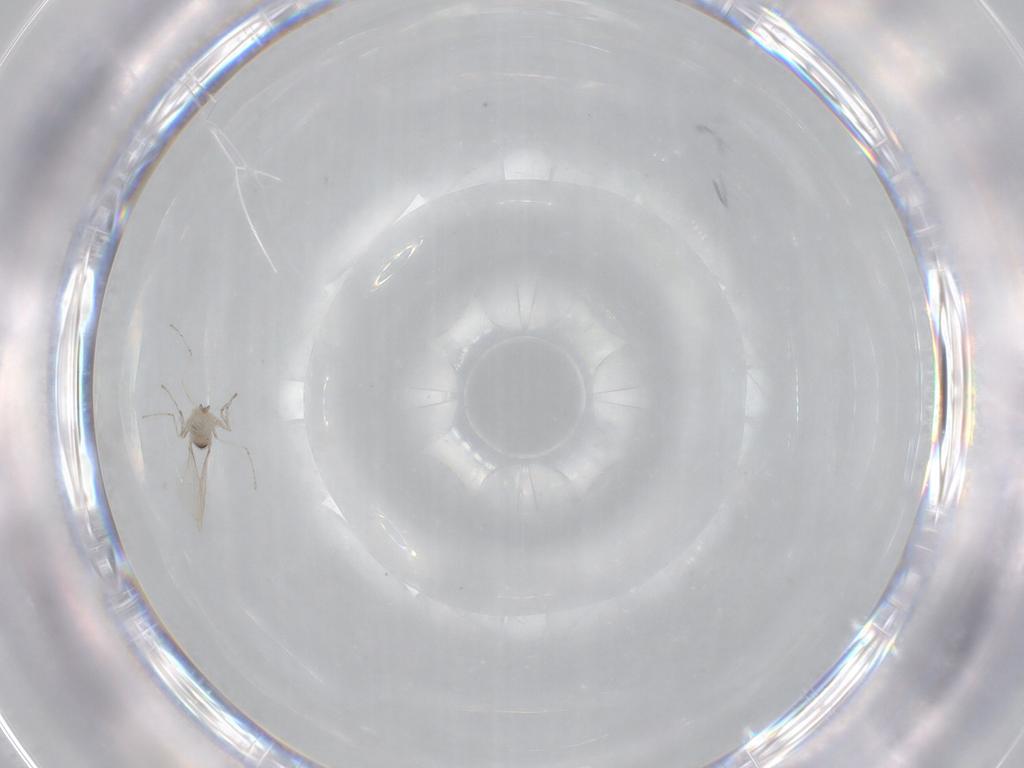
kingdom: Animalia
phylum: Arthropoda
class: Insecta
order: Diptera
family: Cecidomyiidae
